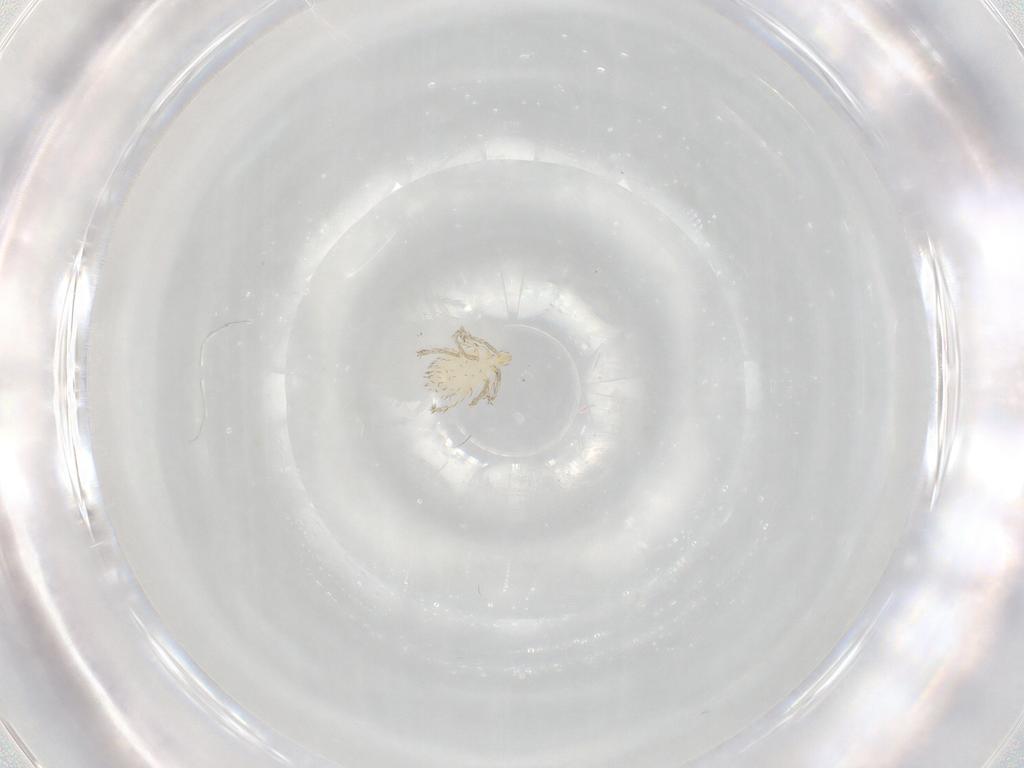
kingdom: Animalia
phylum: Arthropoda
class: Arachnida
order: Trombidiformes
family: Erythraeidae
